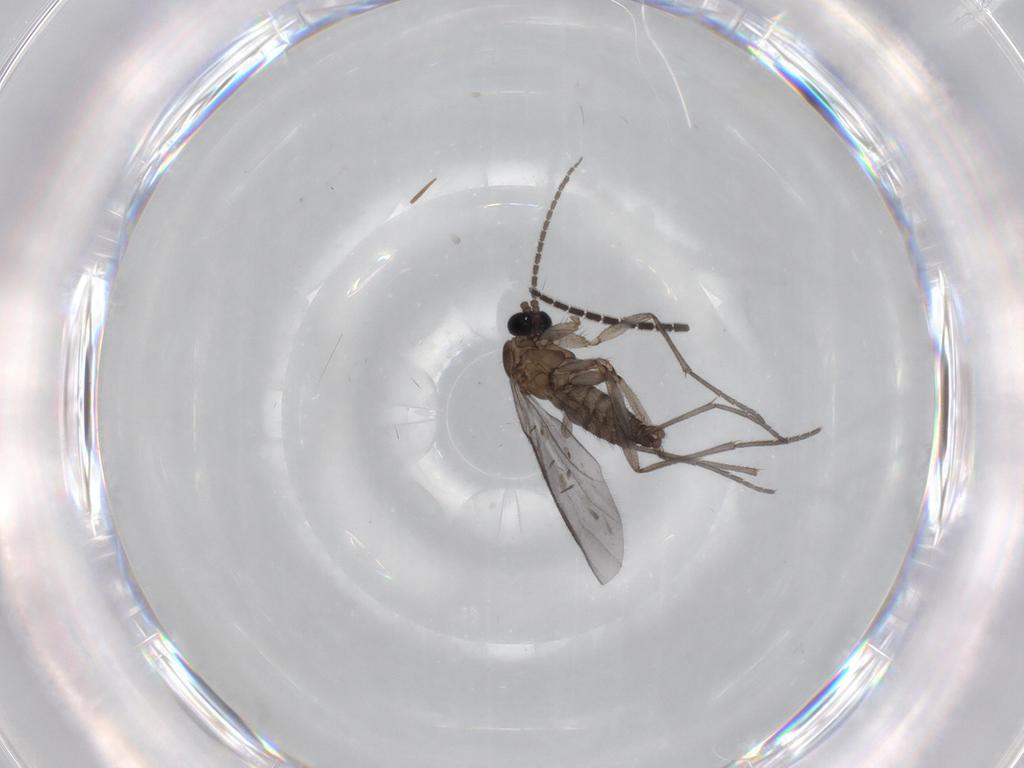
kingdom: Animalia
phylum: Arthropoda
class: Insecta
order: Diptera
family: Sciaridae
